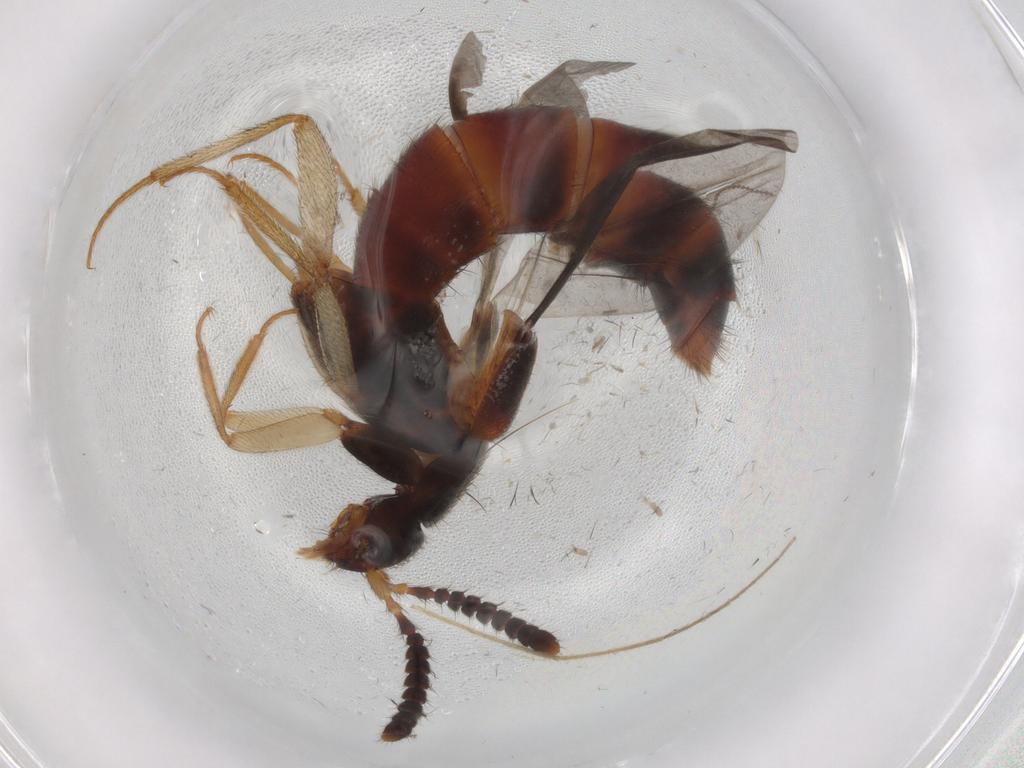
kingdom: Animalia
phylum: Arthropoda
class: Insecta
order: Coleoptera
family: Staphylinidae
